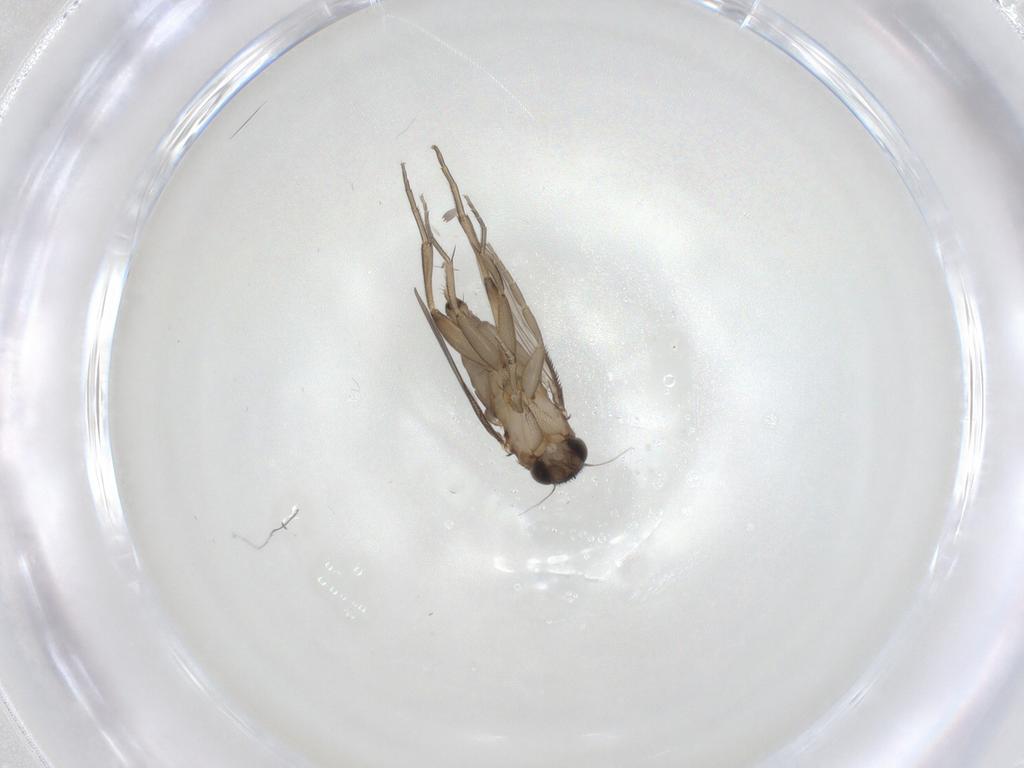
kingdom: Animalia
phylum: Arthropoda
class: Insecta
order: Diptera
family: Phoridae
